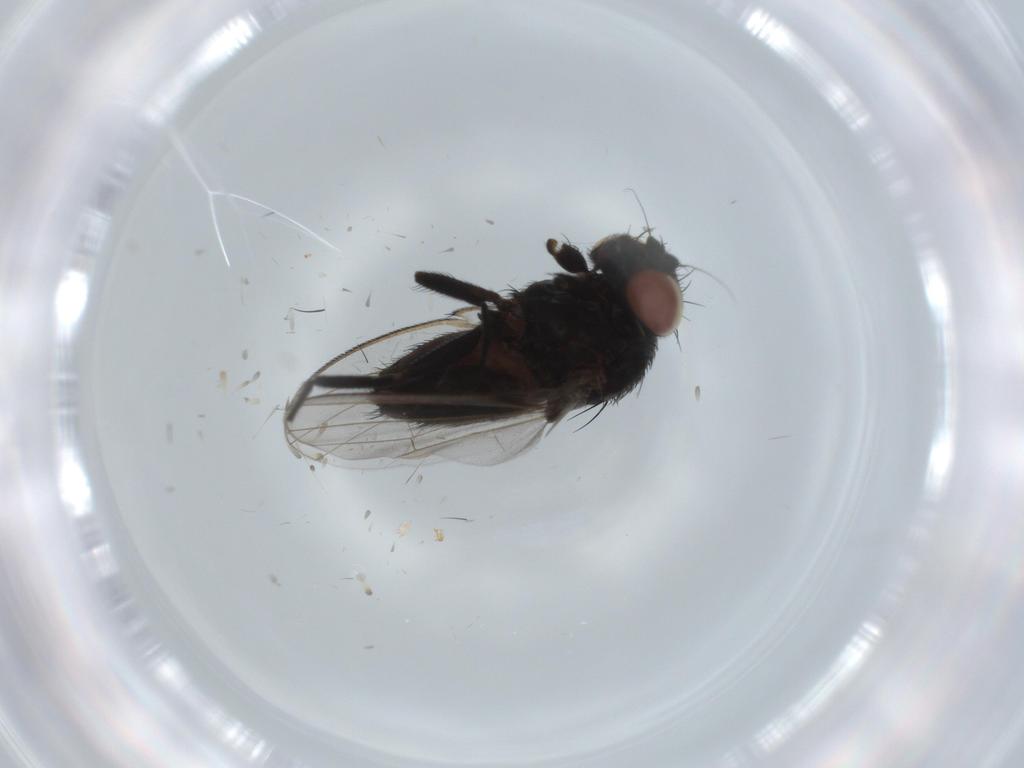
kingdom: Animalia
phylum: Arthropoda
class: Insecta
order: Diptera
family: Milichiidae
